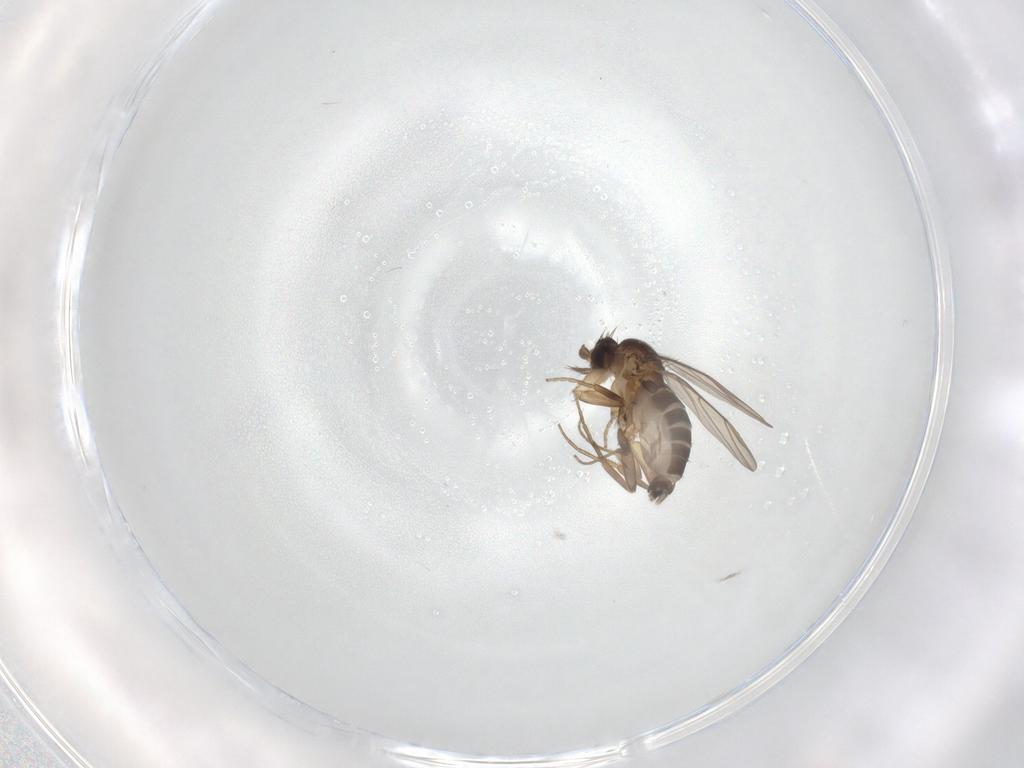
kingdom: Animalia
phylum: Arthropoda
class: Insecta
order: Diptera
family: Phoridae
